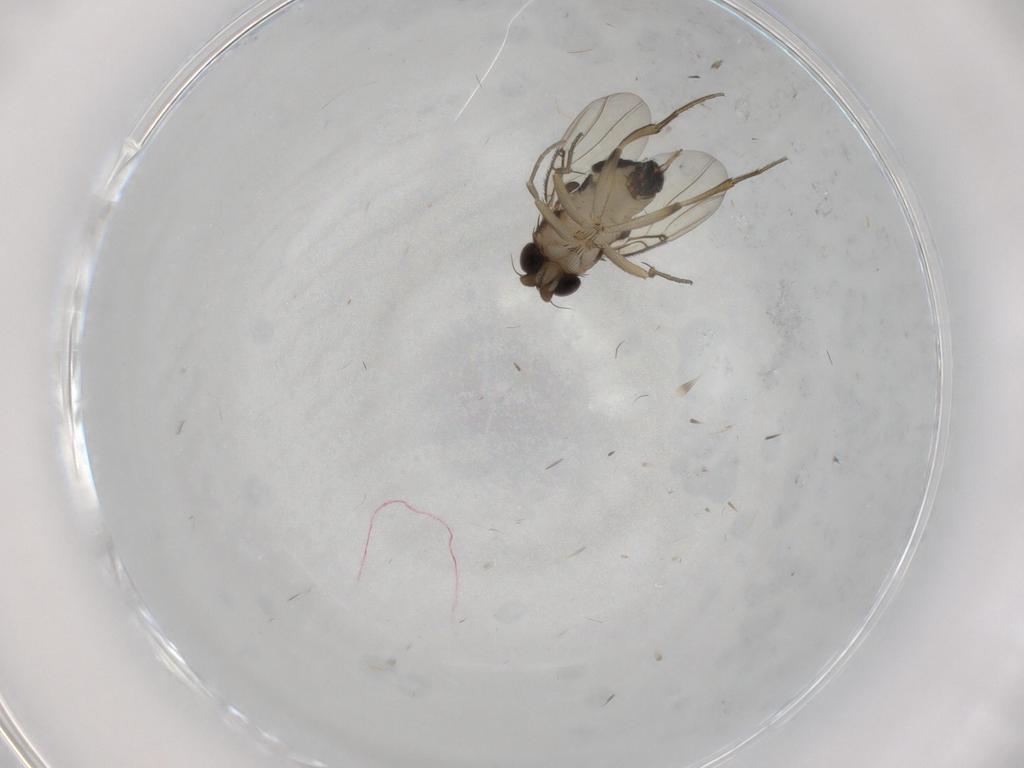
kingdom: Animalia
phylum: Arthropoda
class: Insecta
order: Diptera
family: Phoridae
